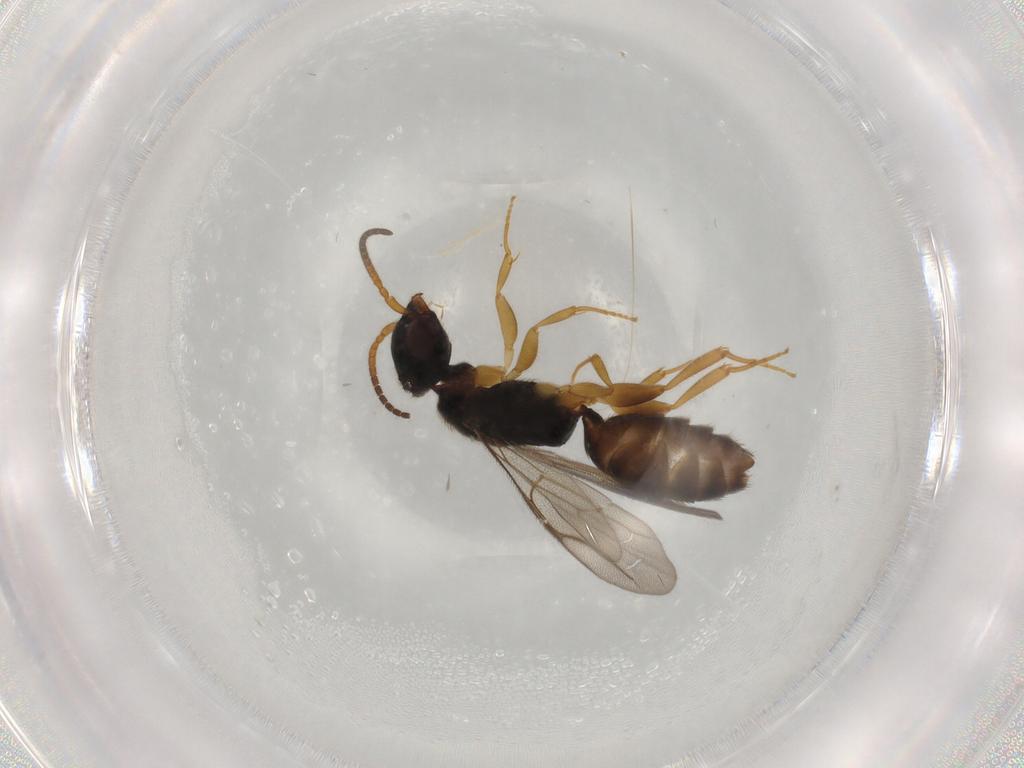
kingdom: Animalia
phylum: Arthropoda
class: Insecta
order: Hymenoptera
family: Bethylidae
